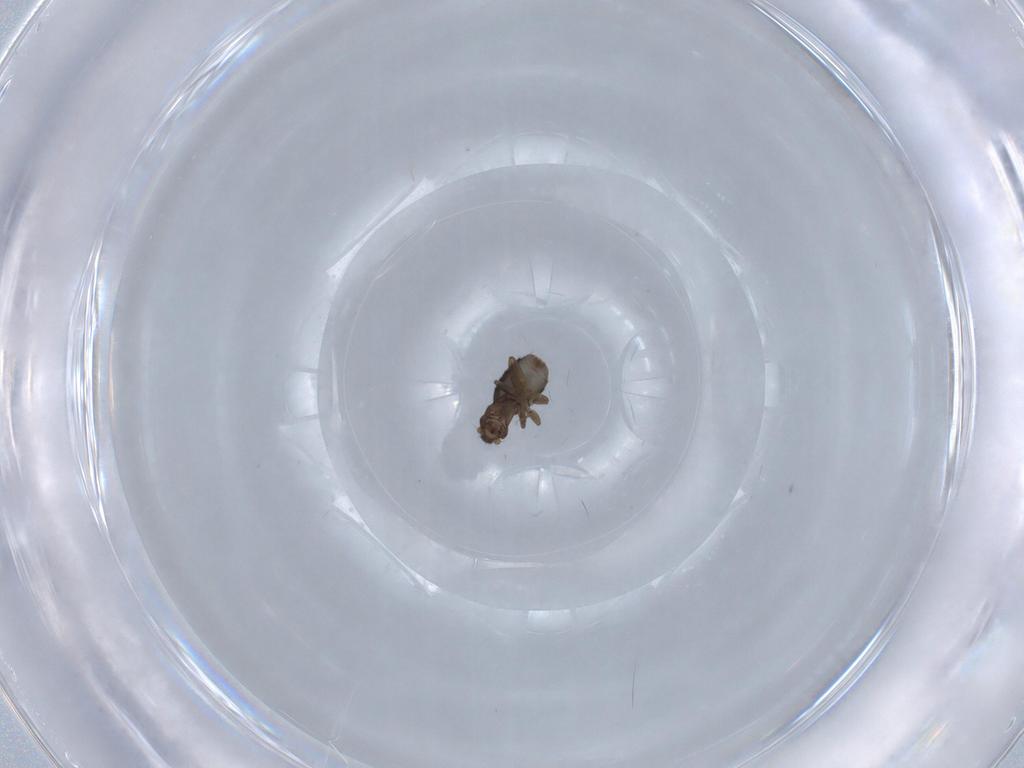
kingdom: Animalia
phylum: Arthropoda
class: Insecta
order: Diptera
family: Phoridae
